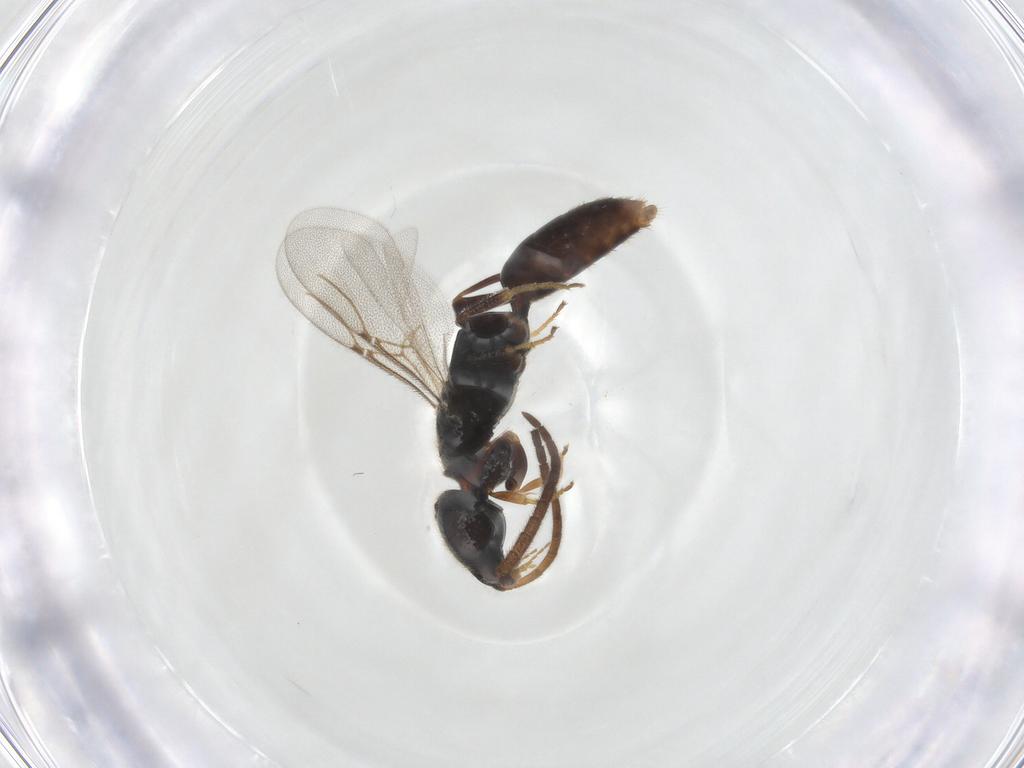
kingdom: Animalia
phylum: Arthropoda
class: Insecta
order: Hymenoptera
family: Bethylidae
